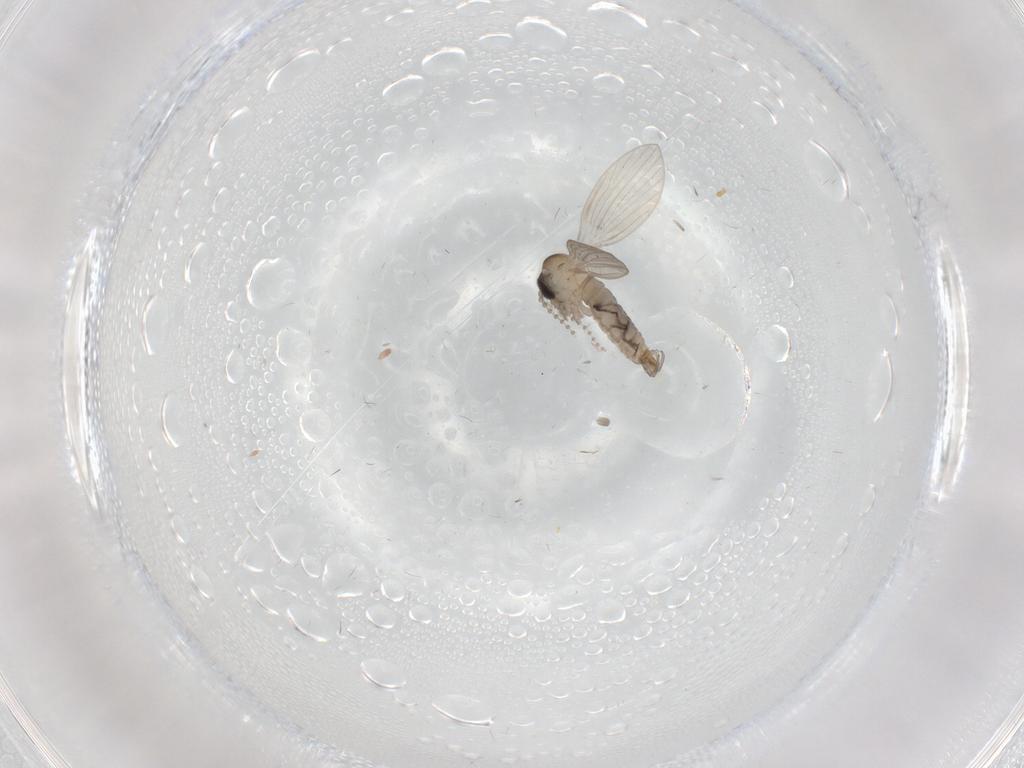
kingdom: Animalia
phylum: Arthropoda
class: Insecta
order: Diptera
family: Psychodidae
